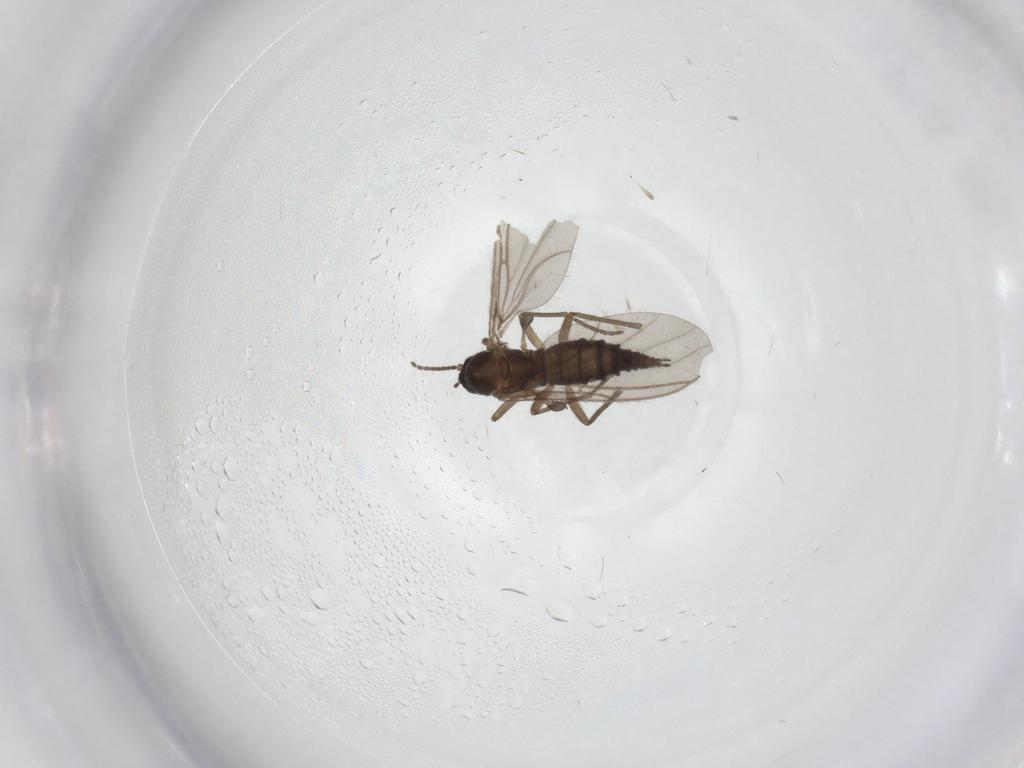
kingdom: Animalia
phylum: Arthropoda
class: Insecta
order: Diptera
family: Sciaridae
